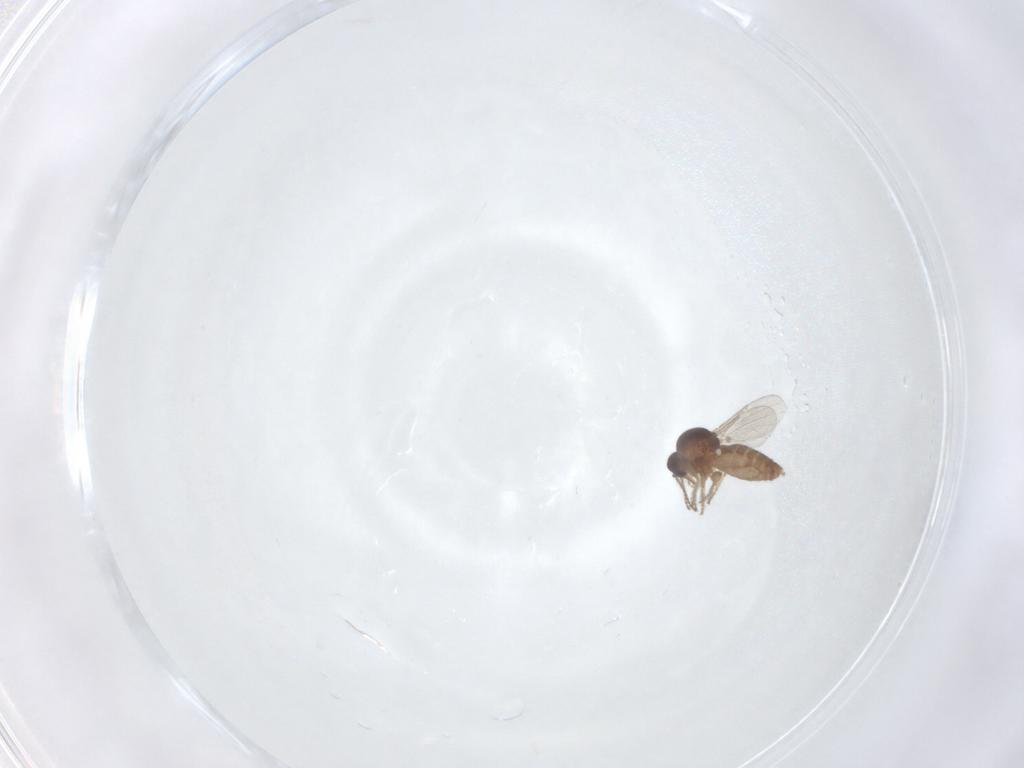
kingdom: Animalia
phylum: Arthropoda
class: Insecta
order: Diptera
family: Ceratopogonidae
